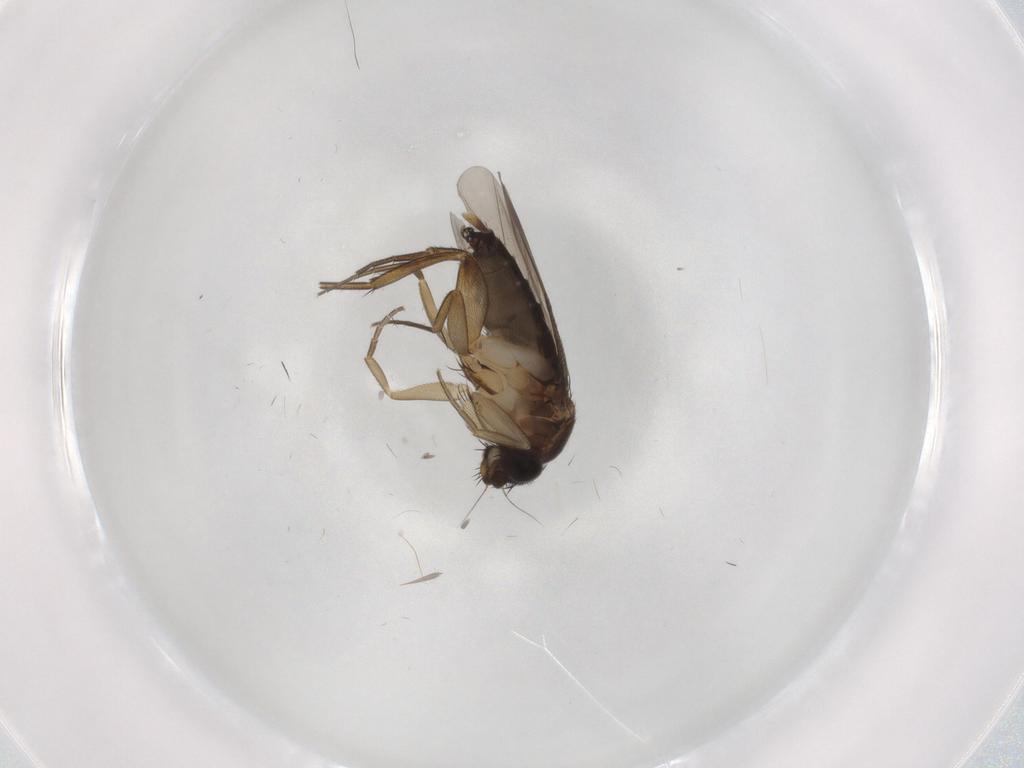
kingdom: Animalia
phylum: Arthropoda
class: Insecta
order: Diptera
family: Phoridae
